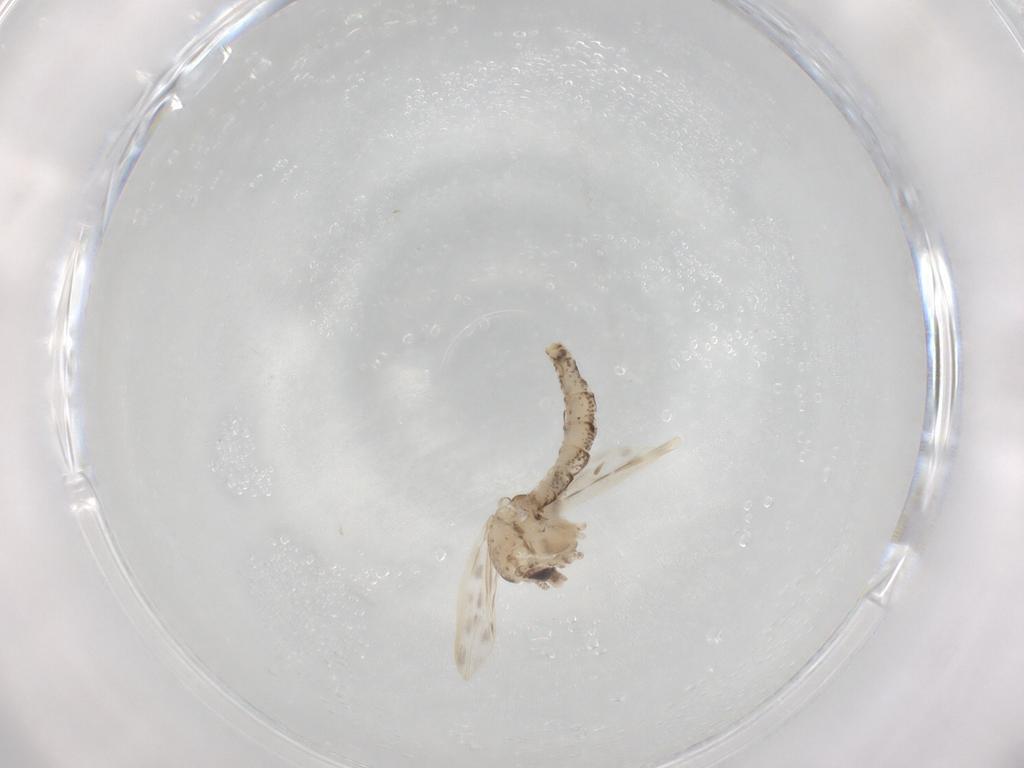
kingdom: Animalia
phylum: Arthropoda
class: Insecta
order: Diptera
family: Chaoboridae
